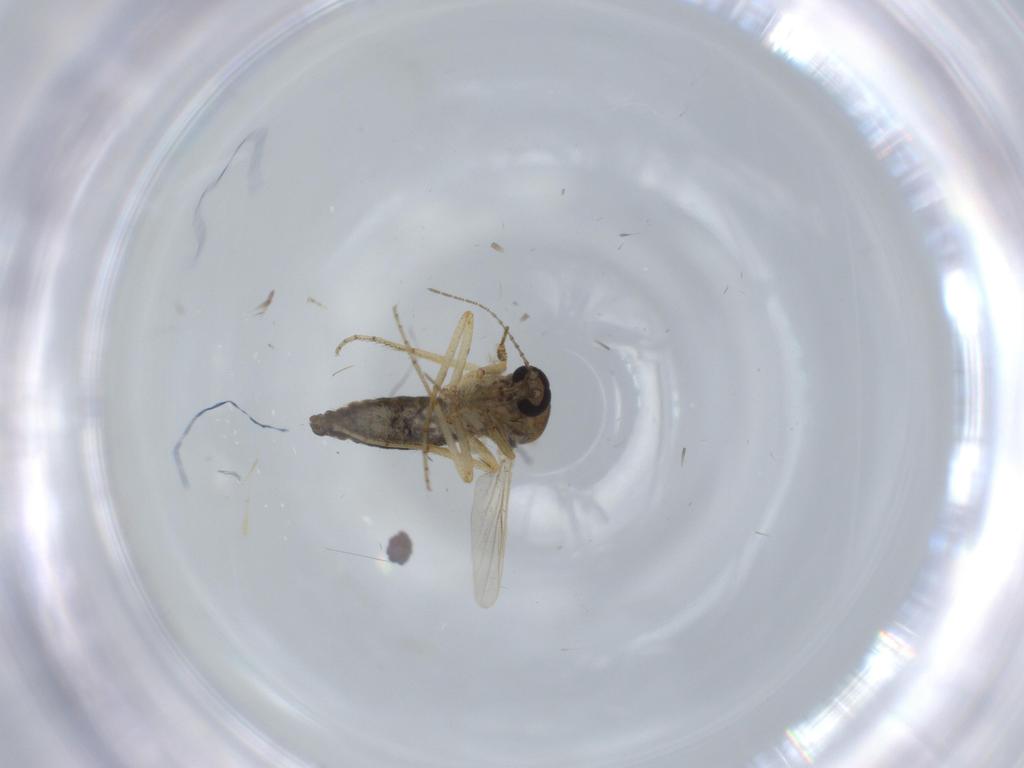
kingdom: Animalia
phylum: Arthropoda
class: Insecta
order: Diptera
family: Ceratopogonidae
